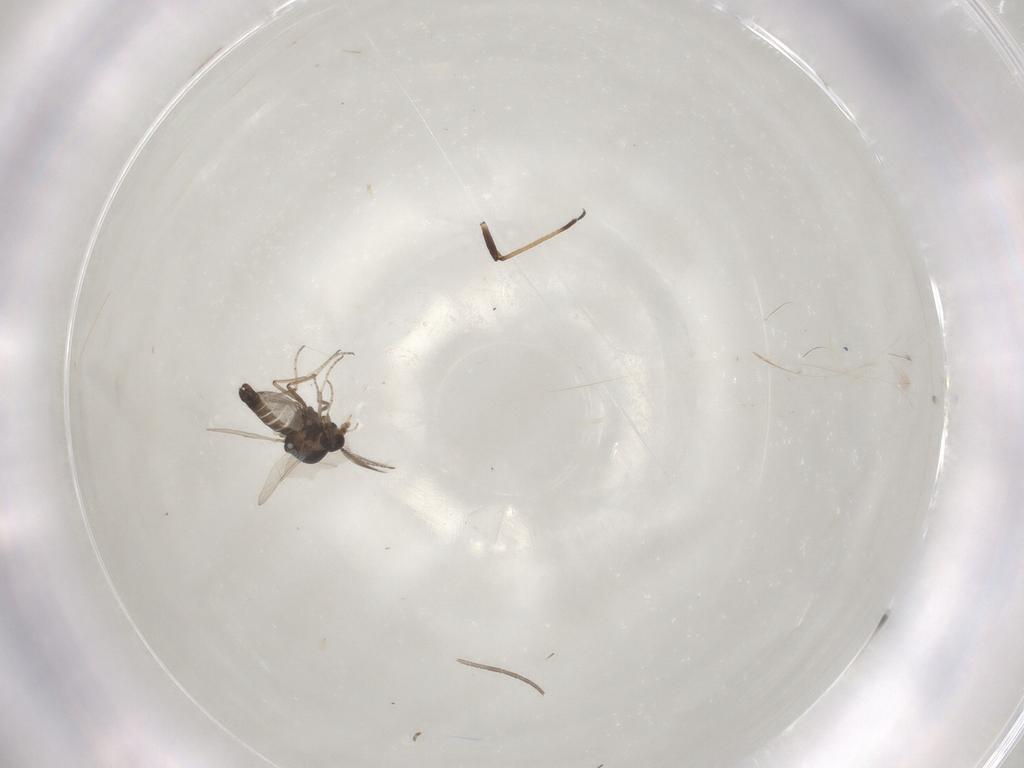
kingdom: Animalia
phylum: Arthropoda
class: Insecta
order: Diptera
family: Ceratopogonidae
